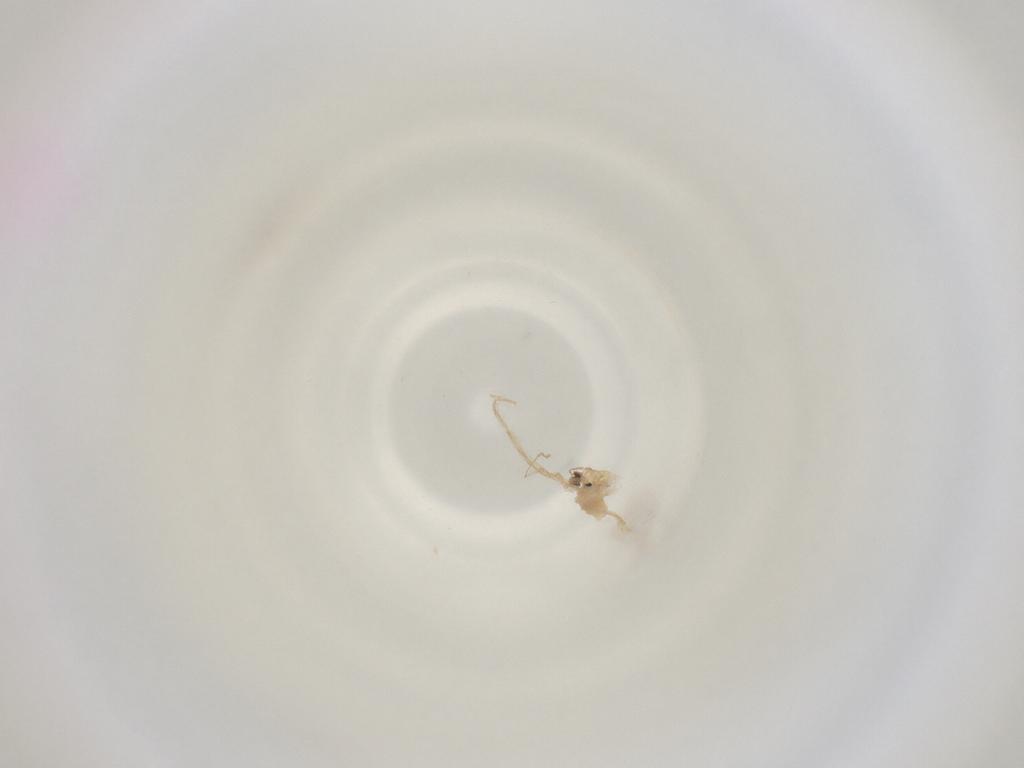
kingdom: Animalia
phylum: Arthropoda
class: Insecta
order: Diptera
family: Cecidomyiidae
